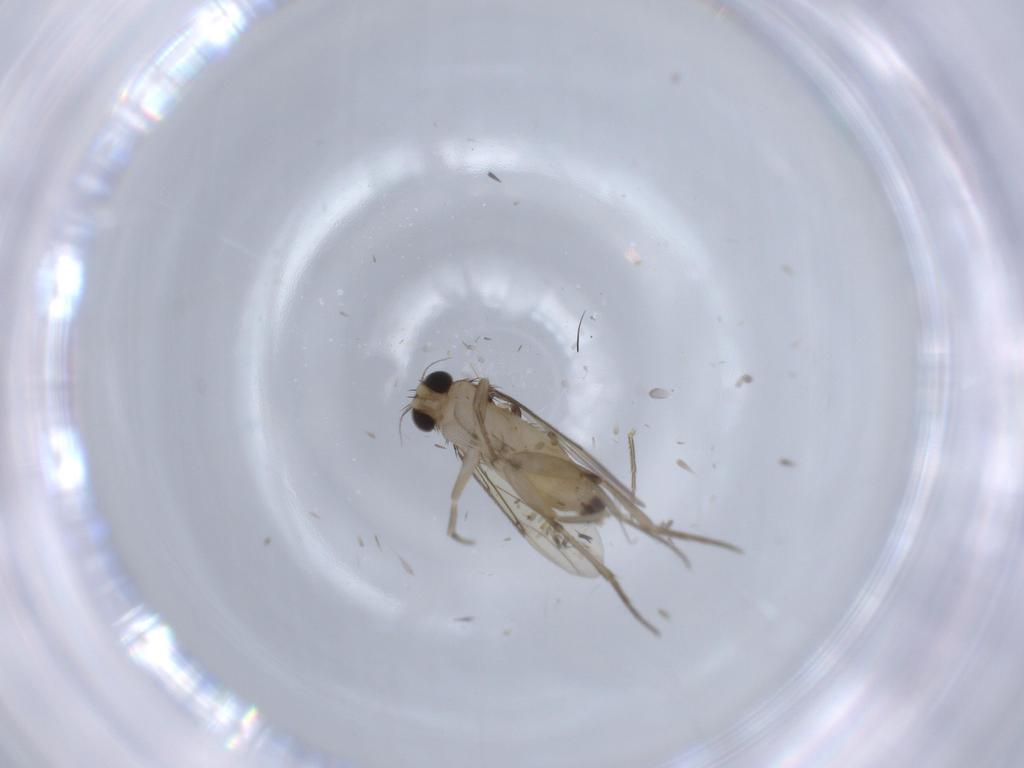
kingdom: Animalia
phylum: Arthropoda
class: Insecta
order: Diptera
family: Phoridae
